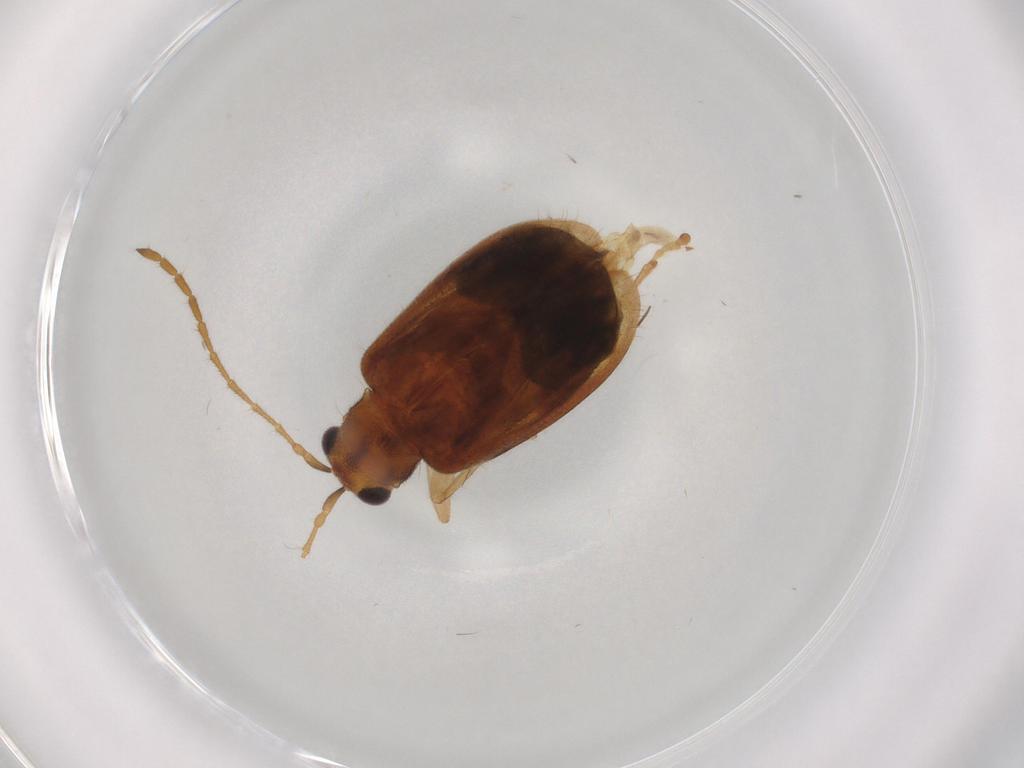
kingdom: Animalia
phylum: Arthropoda
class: Insecta
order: Coleoptera
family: Chrysomelidae
